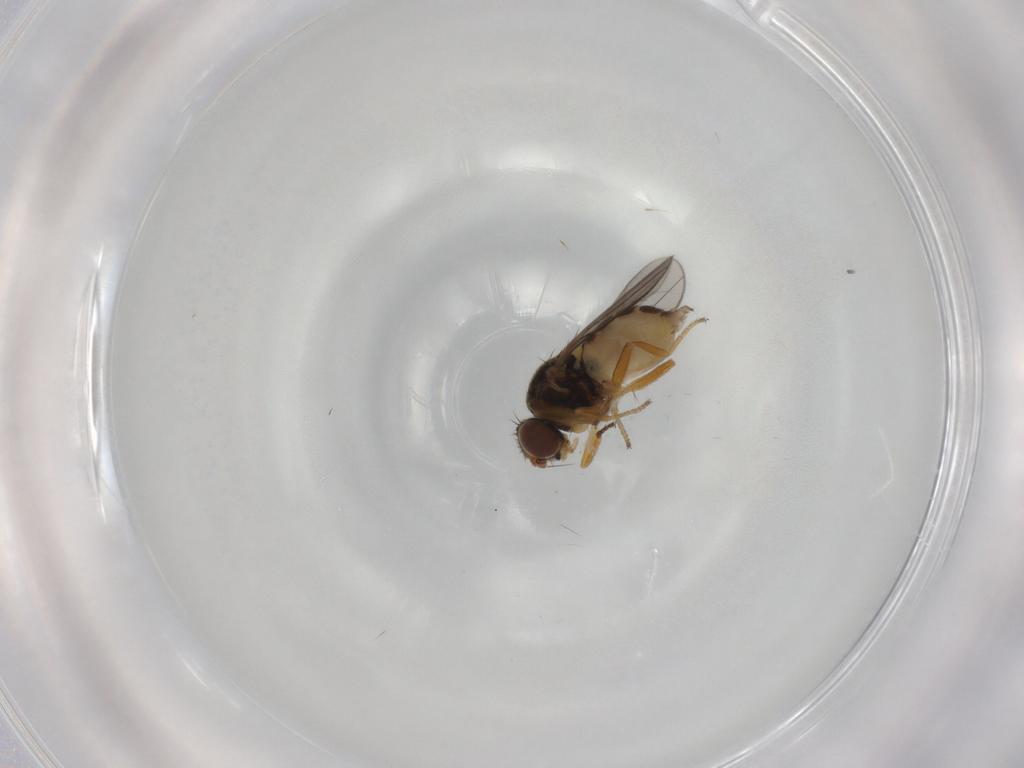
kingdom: Animalia
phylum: Arthropoda
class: Insecta
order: Diptera
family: Chloropidae
